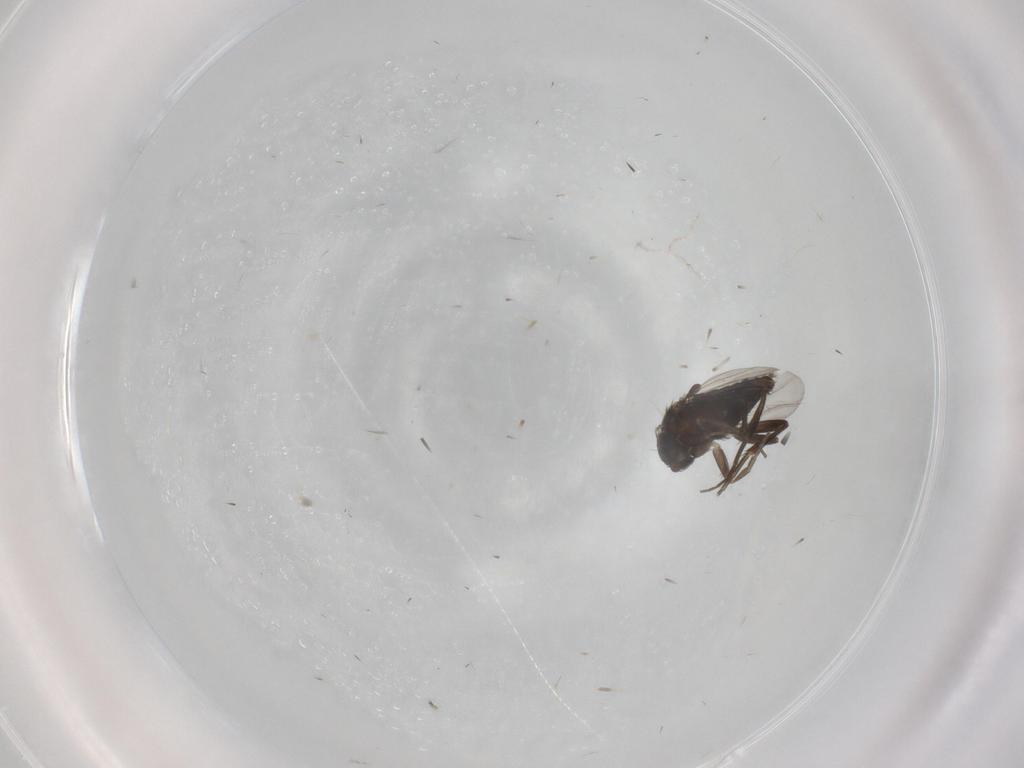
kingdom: Animalia
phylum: Arthropoda
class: Insecta
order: Diptera
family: Phoridae
